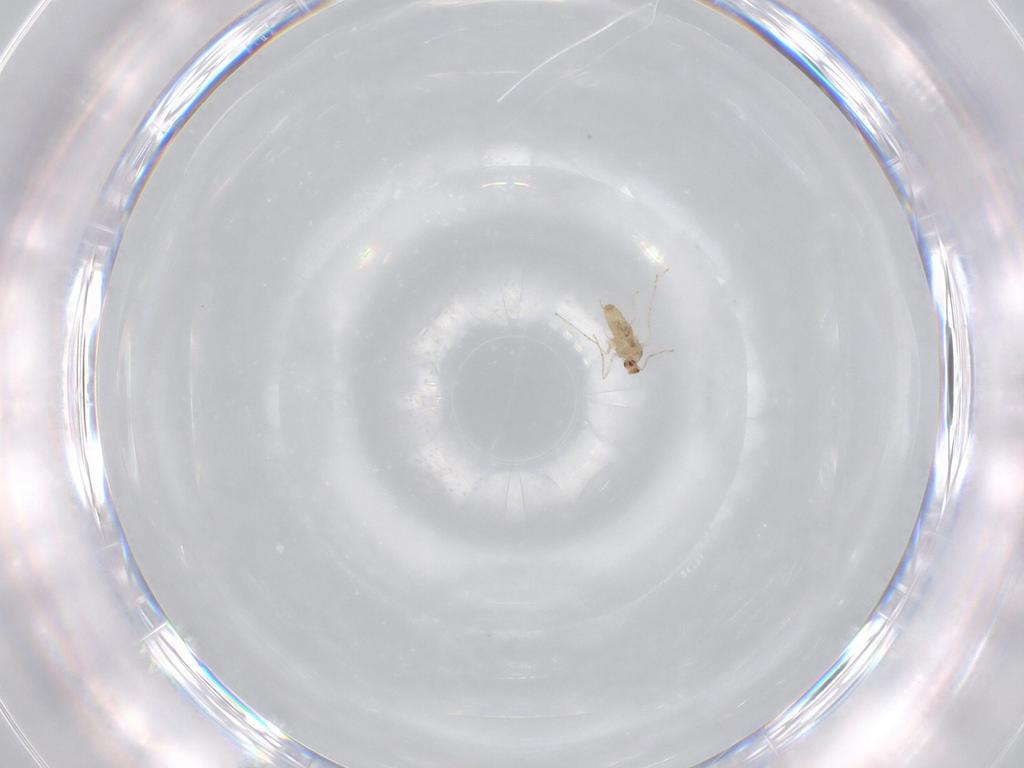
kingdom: Animalia
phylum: Arthropoda
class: Insecta
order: Diptera
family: Cecidomyiidae
